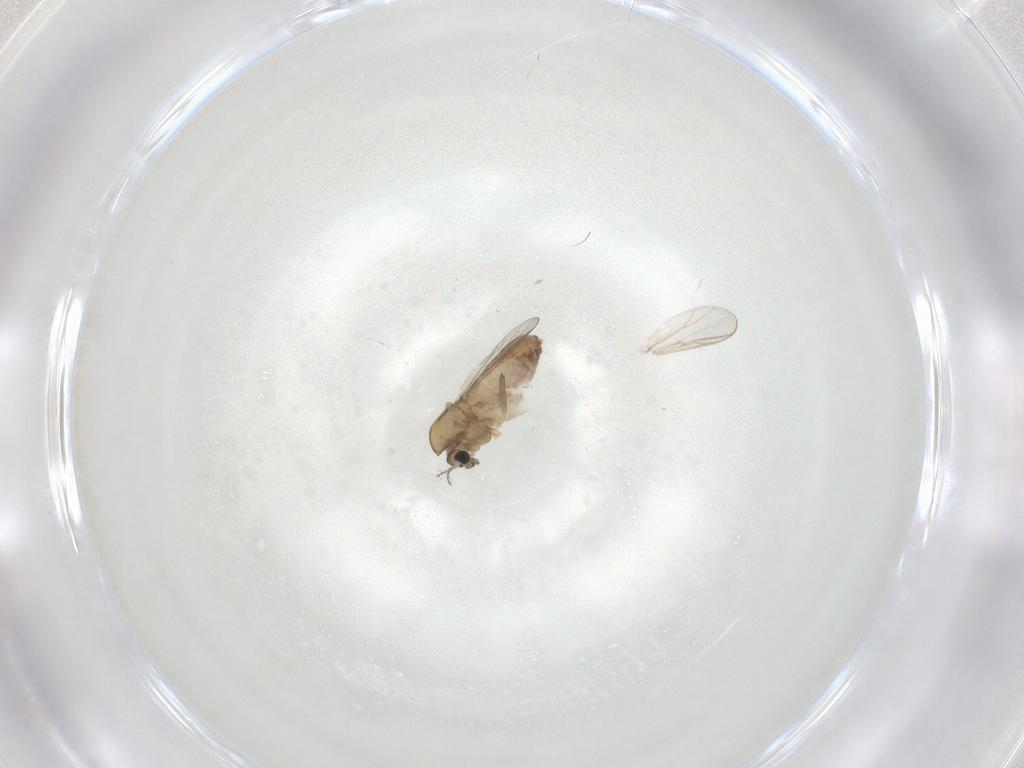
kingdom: Animalia
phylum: Arthropoda
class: Insecta
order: Diptera
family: Chironomidae
